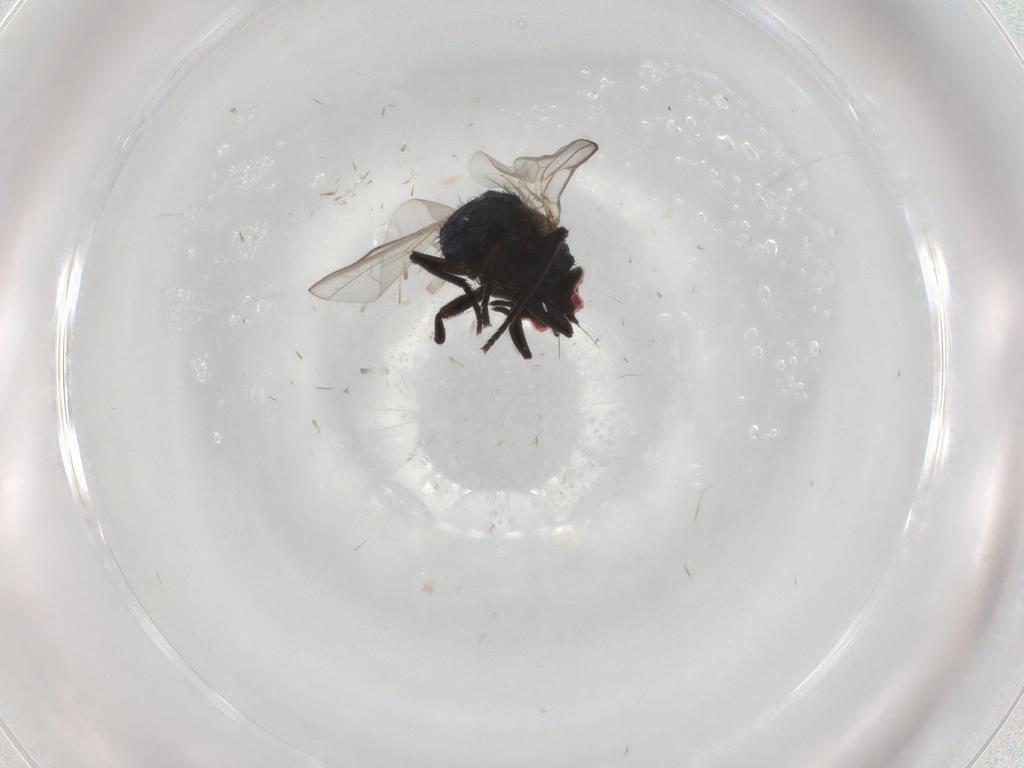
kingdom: Animalia
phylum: Arthropoda
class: Insecta
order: Diptera
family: Agromyzidae
